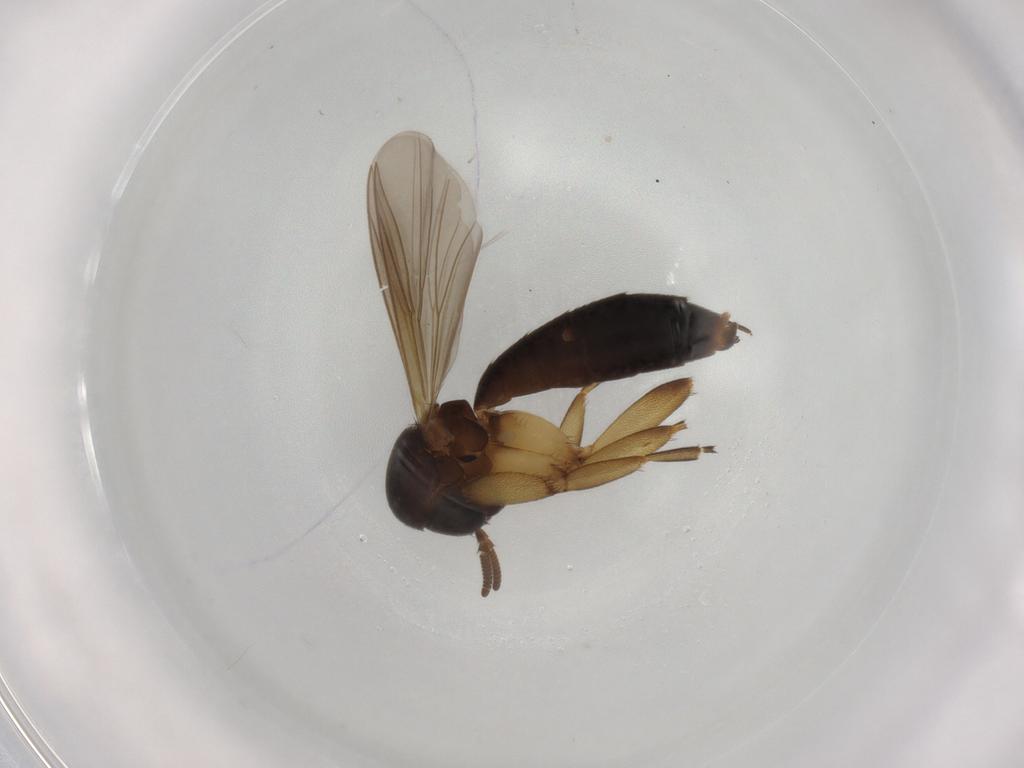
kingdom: Animalia
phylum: Arthropoda
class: Insecta
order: Diptera
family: Mycetophilidae
